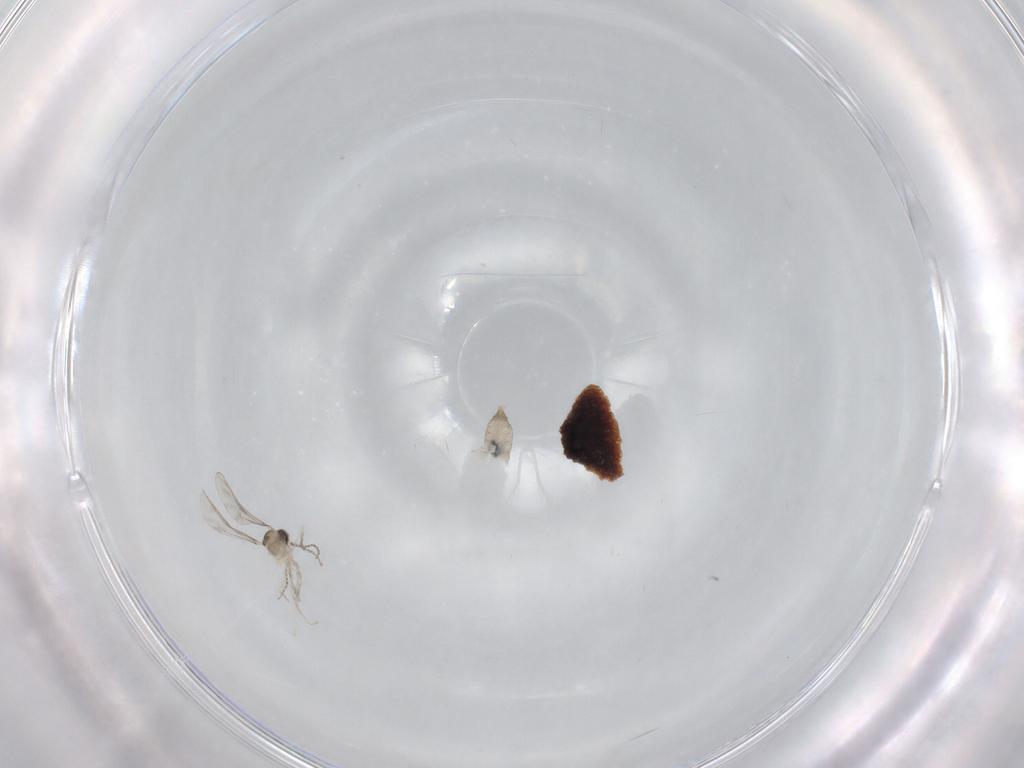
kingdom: Animalia
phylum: Arthropoda
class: Insecta
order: Diptera
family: Cecidomyiidae
